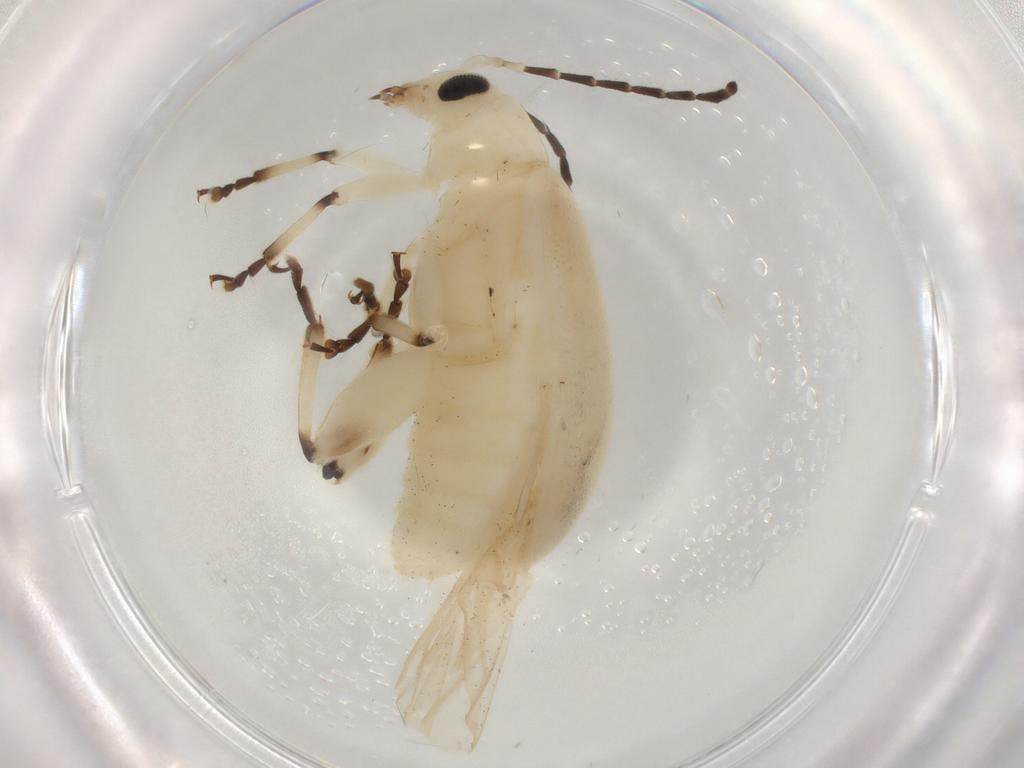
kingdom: Animalia
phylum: Arthropoda
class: Insecta
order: Coleoptera
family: Chrysomelidae
